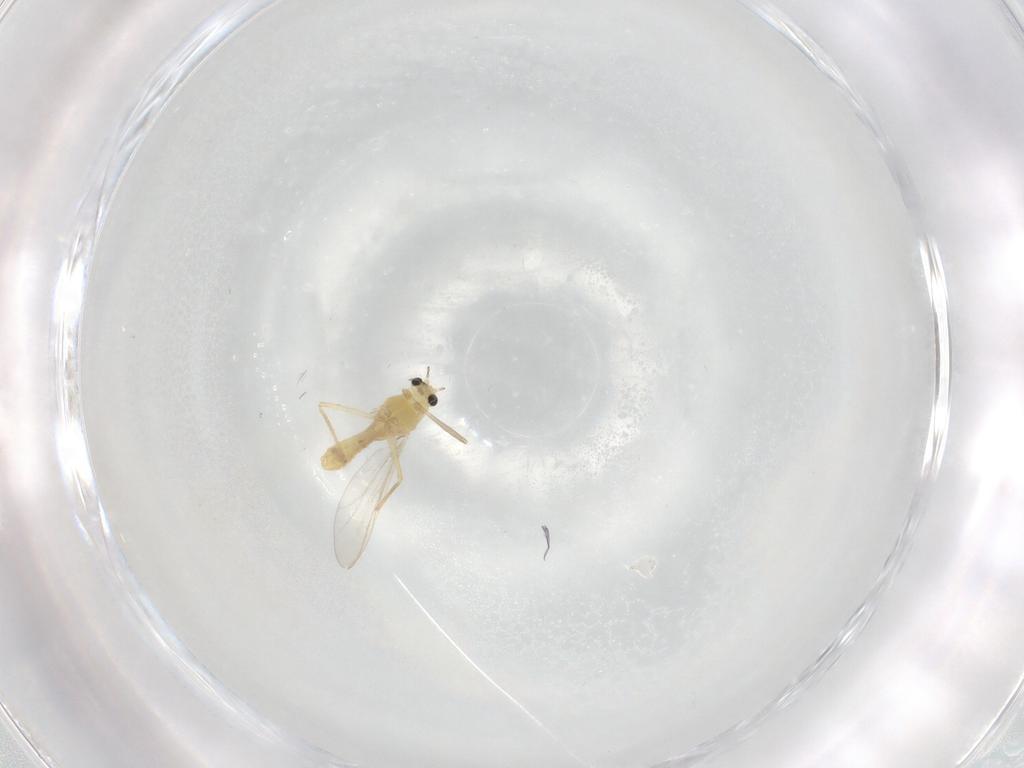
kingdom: Animalia
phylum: Arthropoda
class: Insecta
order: Diptera
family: Chironomidae
